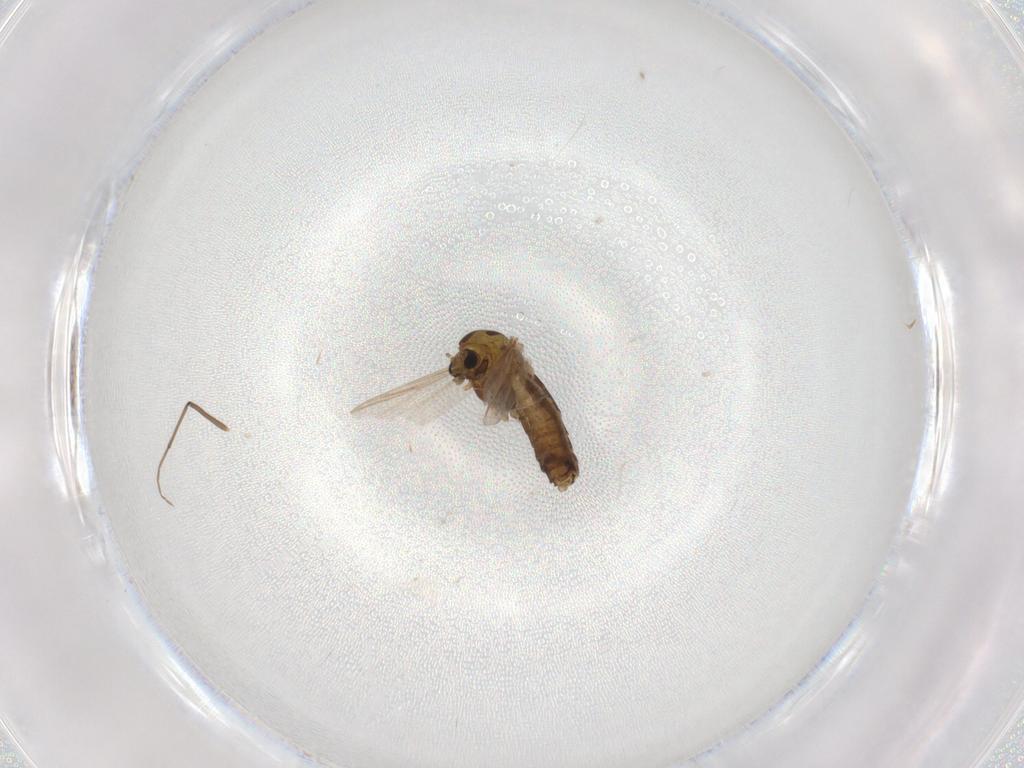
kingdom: Animalia
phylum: Arthropoda
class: Insecta
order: Diptera
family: Chironomidae
